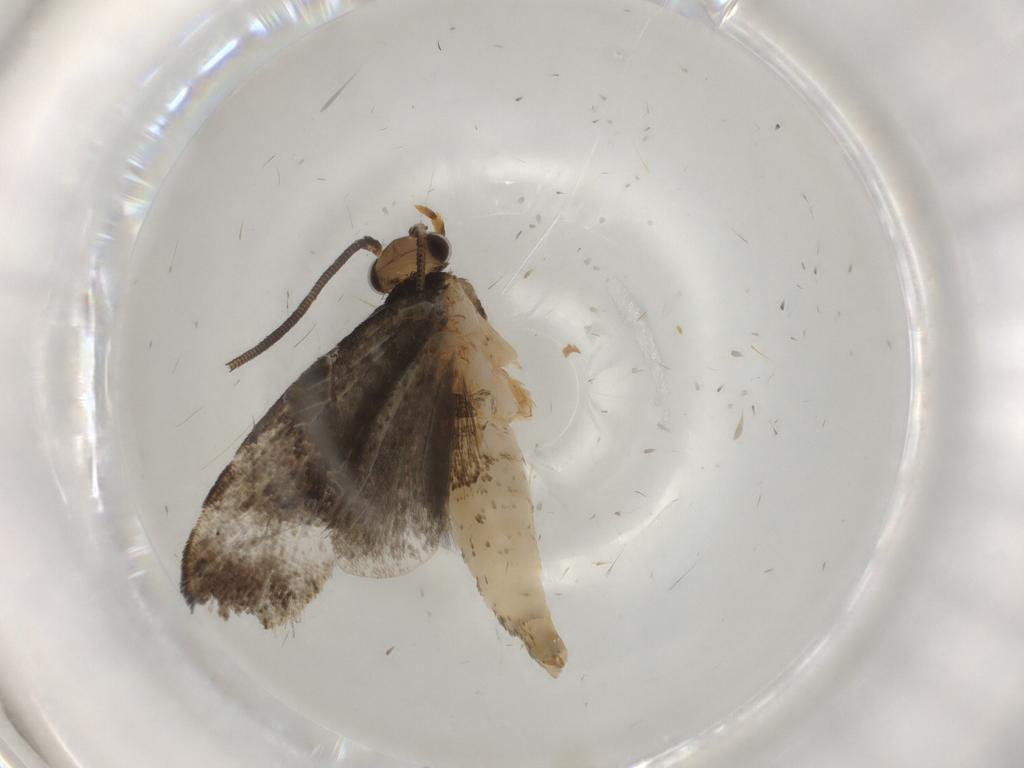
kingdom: Animalia
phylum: Arthropoda
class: Insecta
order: Lepidoptera
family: Tineidae
